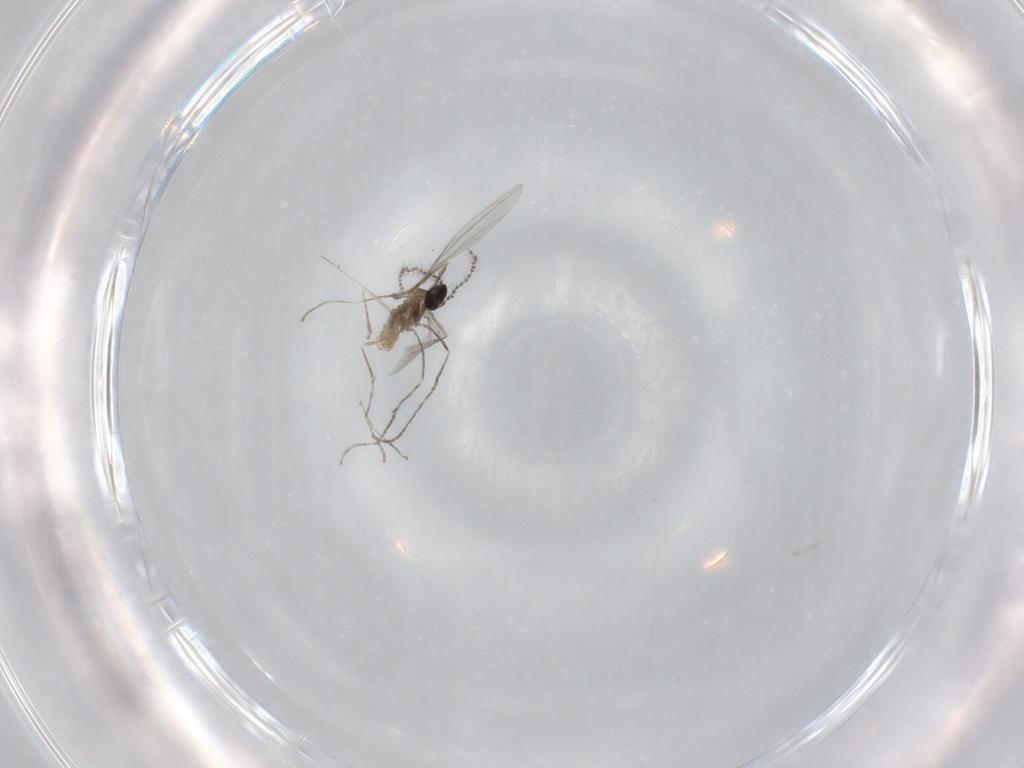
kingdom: Animalia
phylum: Arthropoda
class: Insecta
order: Diptera
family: Cecidomyiidae
